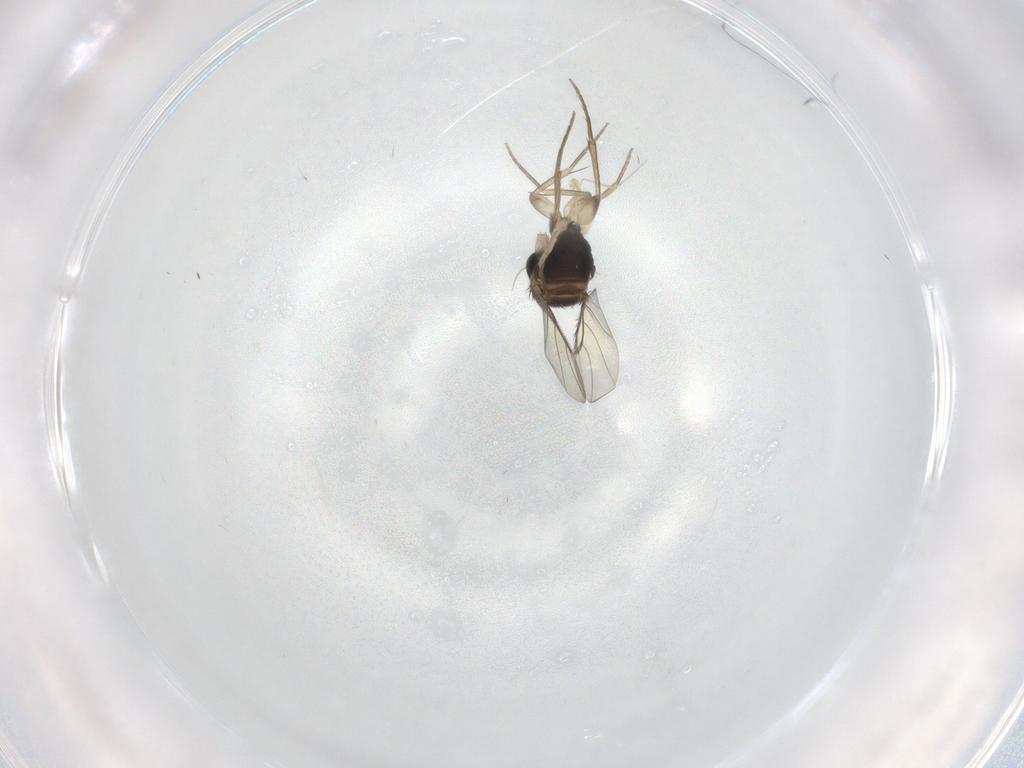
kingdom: Animalia
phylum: Arthropoda
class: Insecta
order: Diptera
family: Phoridae
